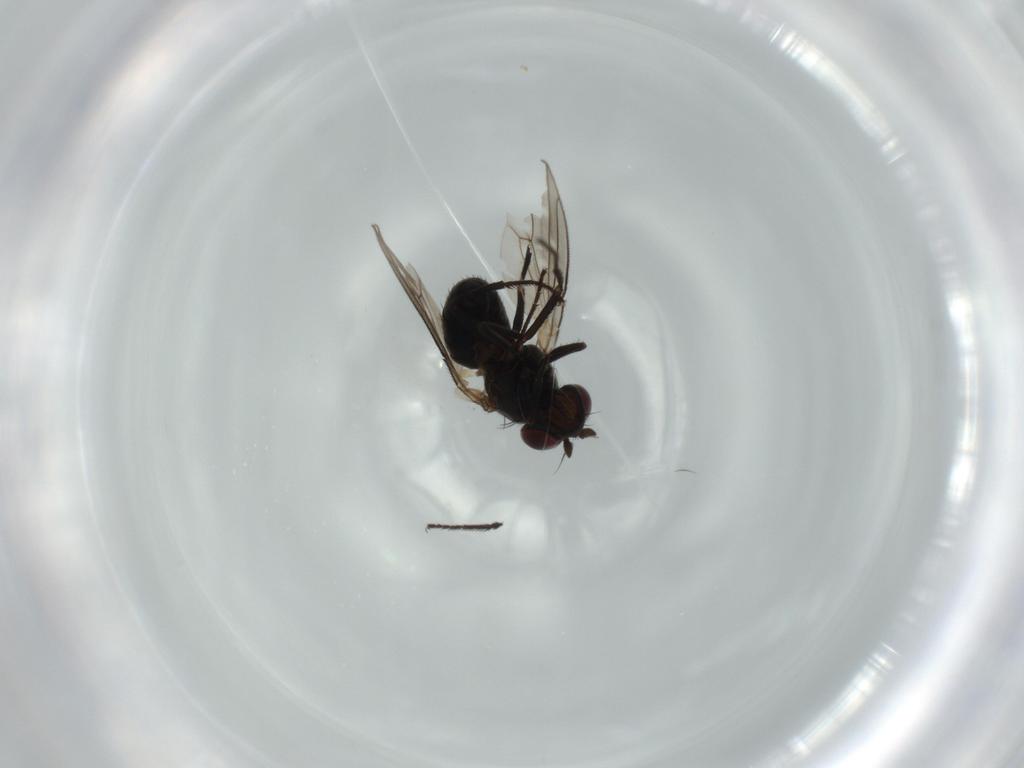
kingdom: Animalia
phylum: Arthropoda
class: Insecta
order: Diptera
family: Ephydridae
